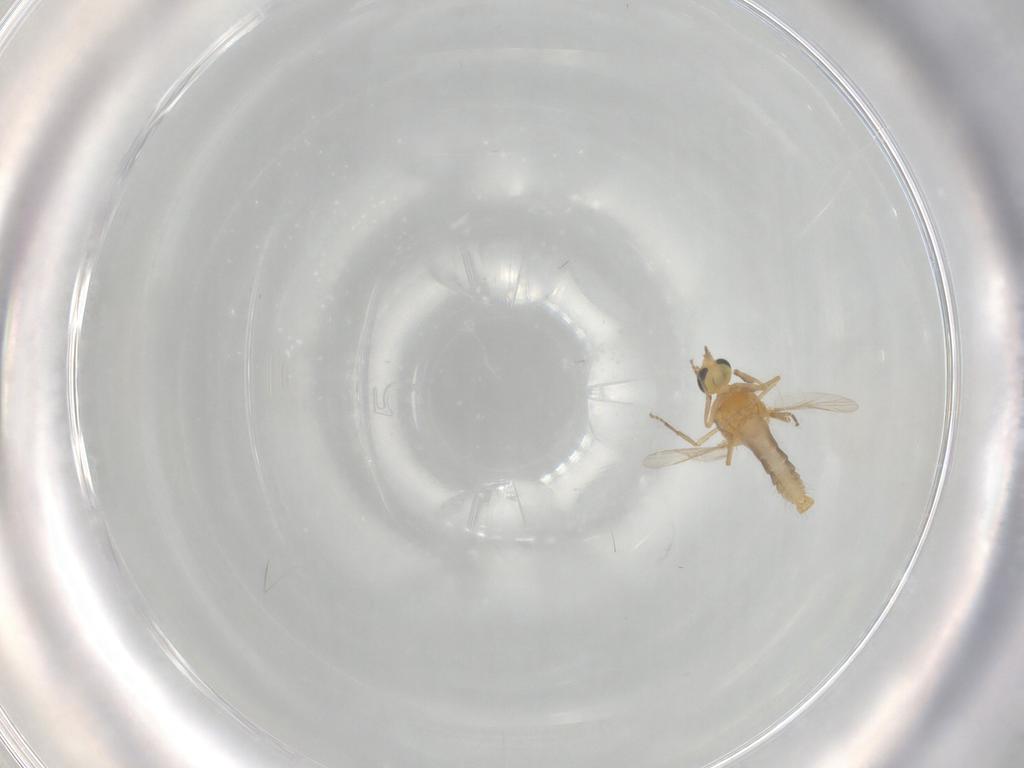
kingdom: Animalia
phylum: Arthropoda
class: Insecta
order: Diptera
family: Ceratopogonidae
